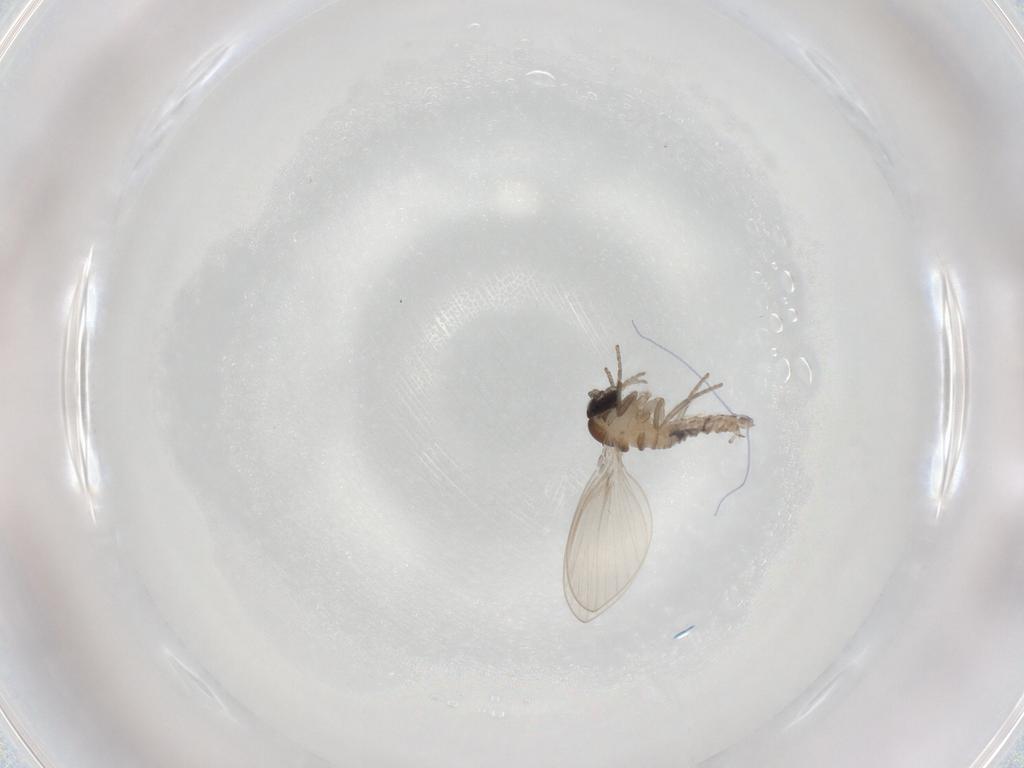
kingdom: Animalia
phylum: Arthropoda
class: Insecta
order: Diptera
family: Psychodidae
